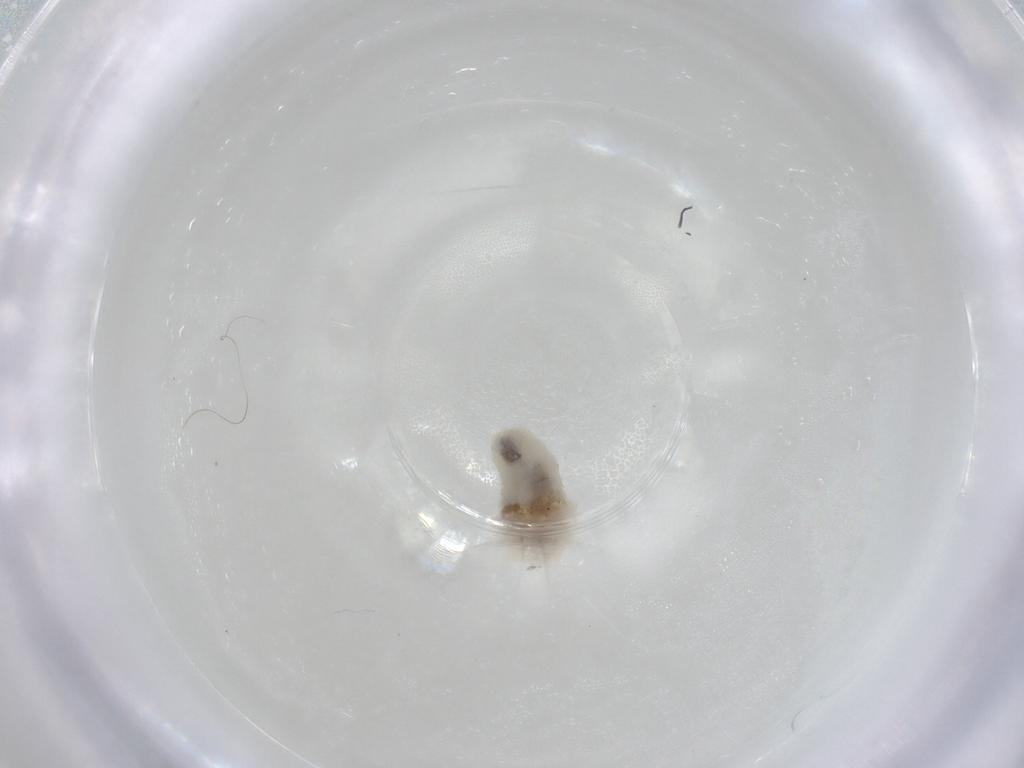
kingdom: Animalia
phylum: Arthropoda
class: Insecta
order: Psocodea
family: Caeciliusidae
